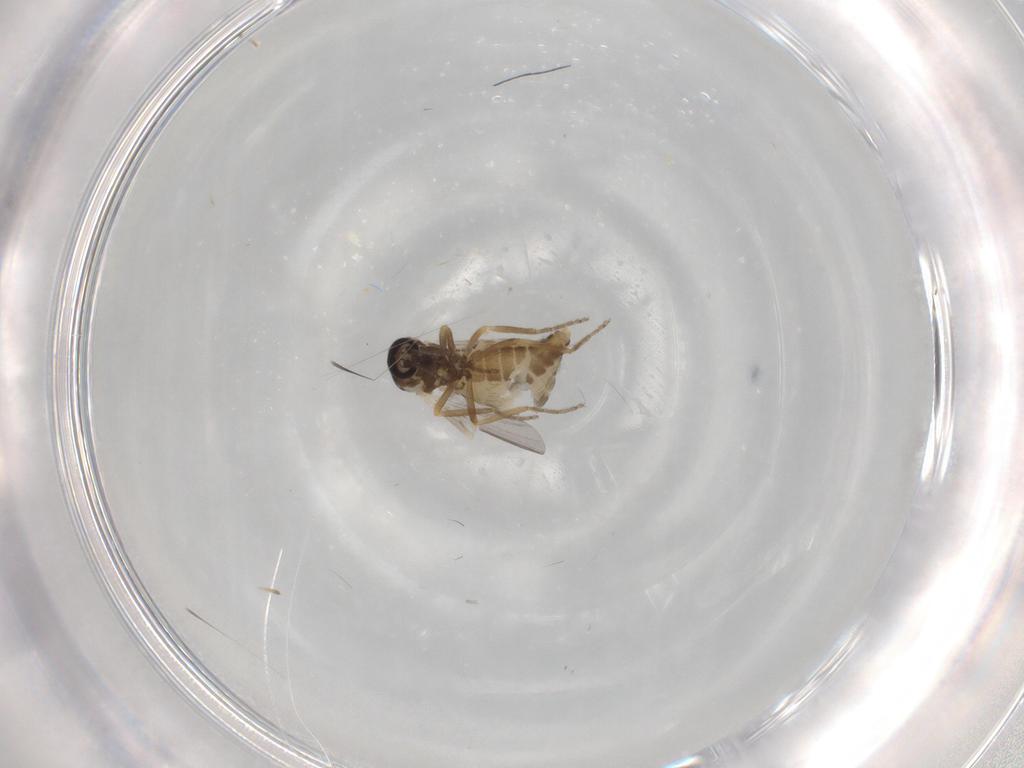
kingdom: Animalia
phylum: Arthropoda
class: Insecta
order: Diptera
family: Ceratopogonidae
